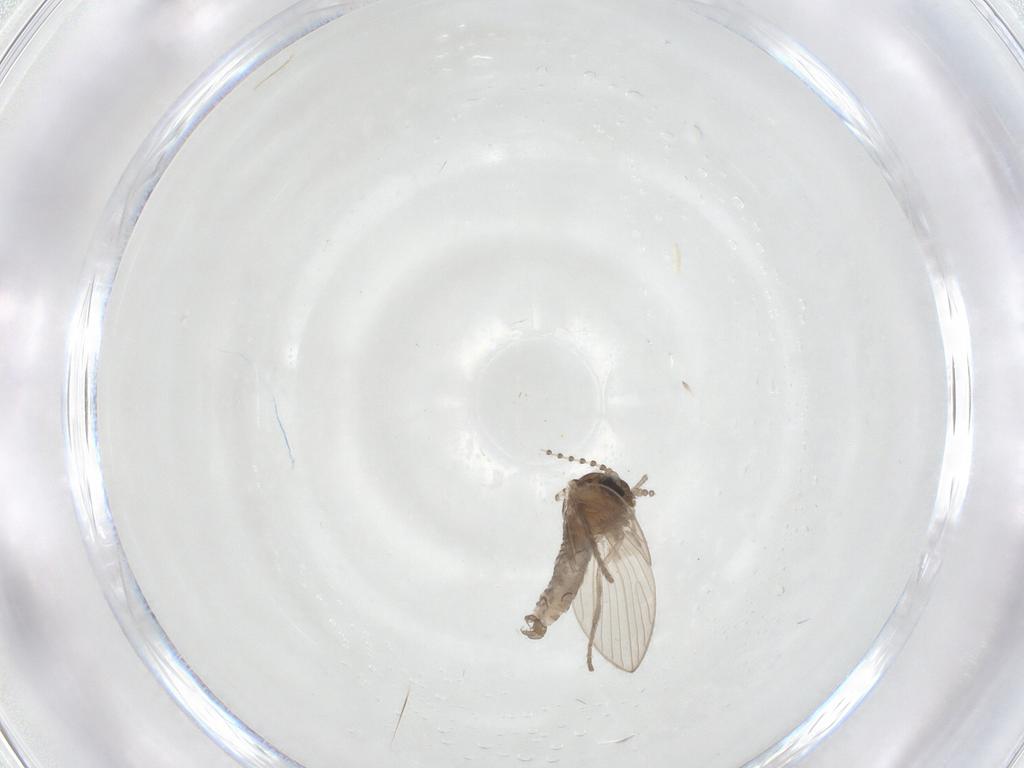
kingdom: Animalia
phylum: Arthropoda
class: Insecta
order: Diptera
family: Psychodidae
